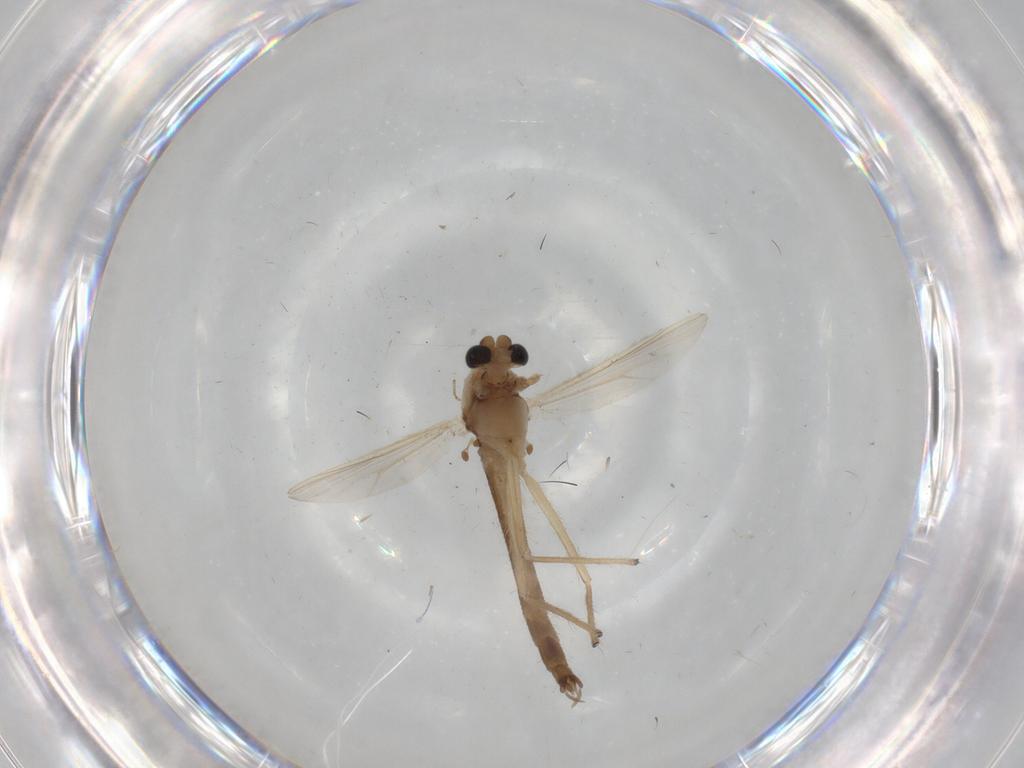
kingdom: Animalia
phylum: Arthropoda
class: Insecta
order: Diptera
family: Chironomidae
